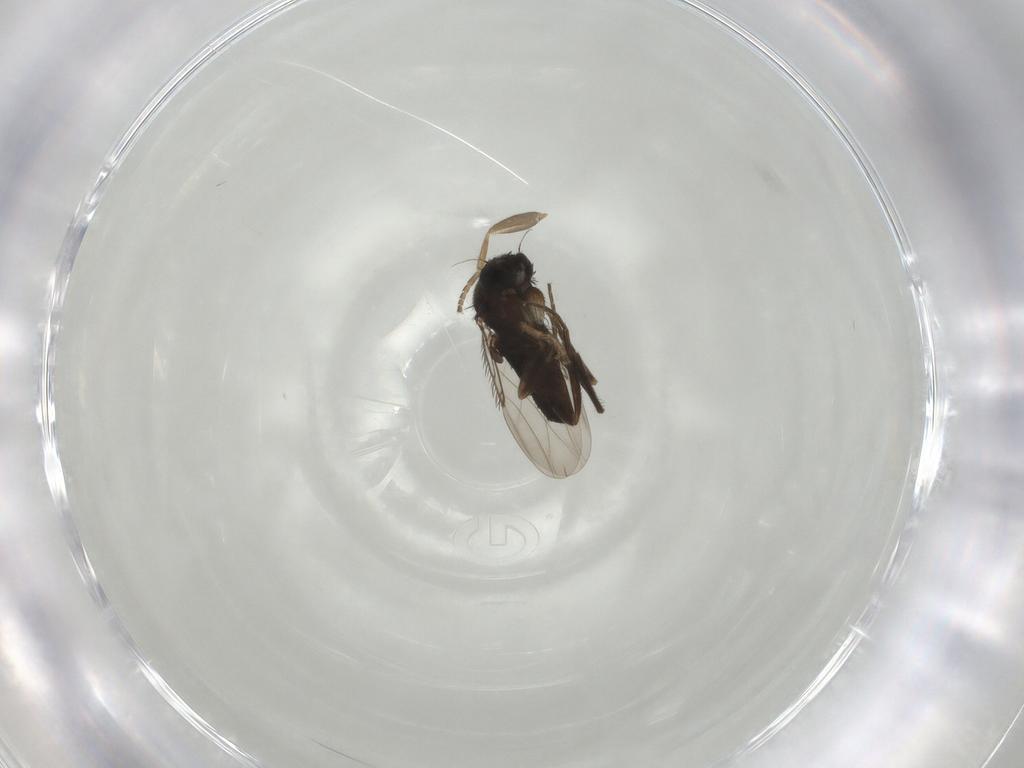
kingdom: Animalia
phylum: Arthropoda
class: Insecta
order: Diptera
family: Phoridae
